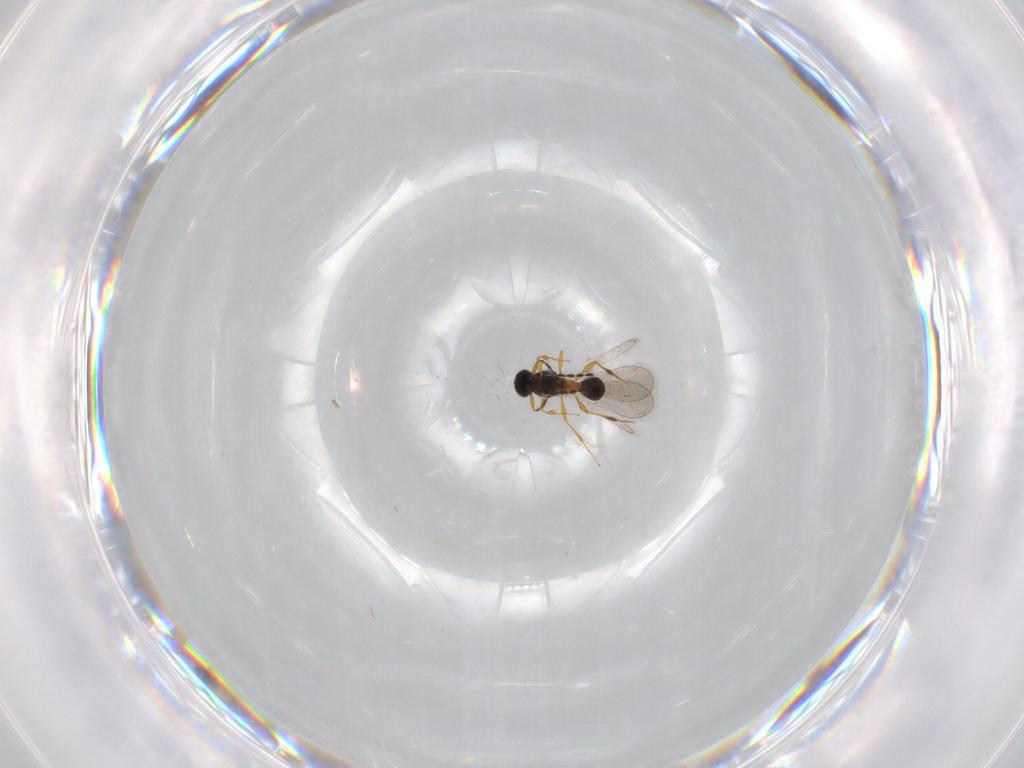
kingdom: Animalia
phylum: Arthropoda
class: Insecta
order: Hymenoptera
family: Platygastridae
